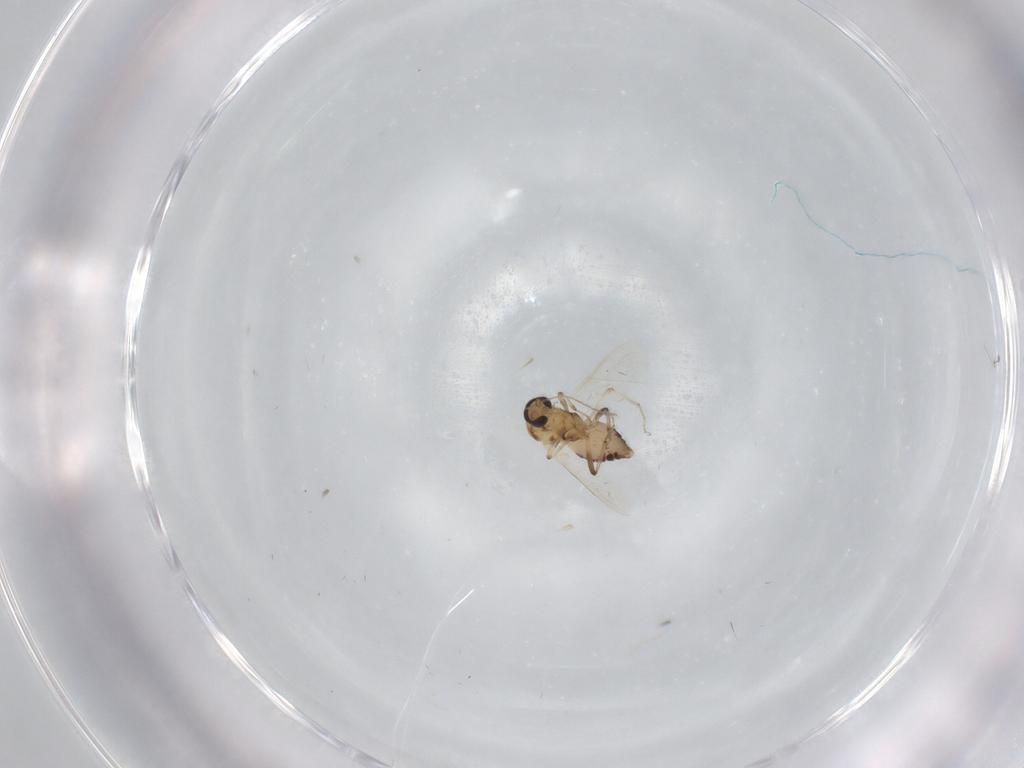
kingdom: Animalia
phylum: Arthropoda
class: Insecta
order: Diptera
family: Ceratopogonidae
